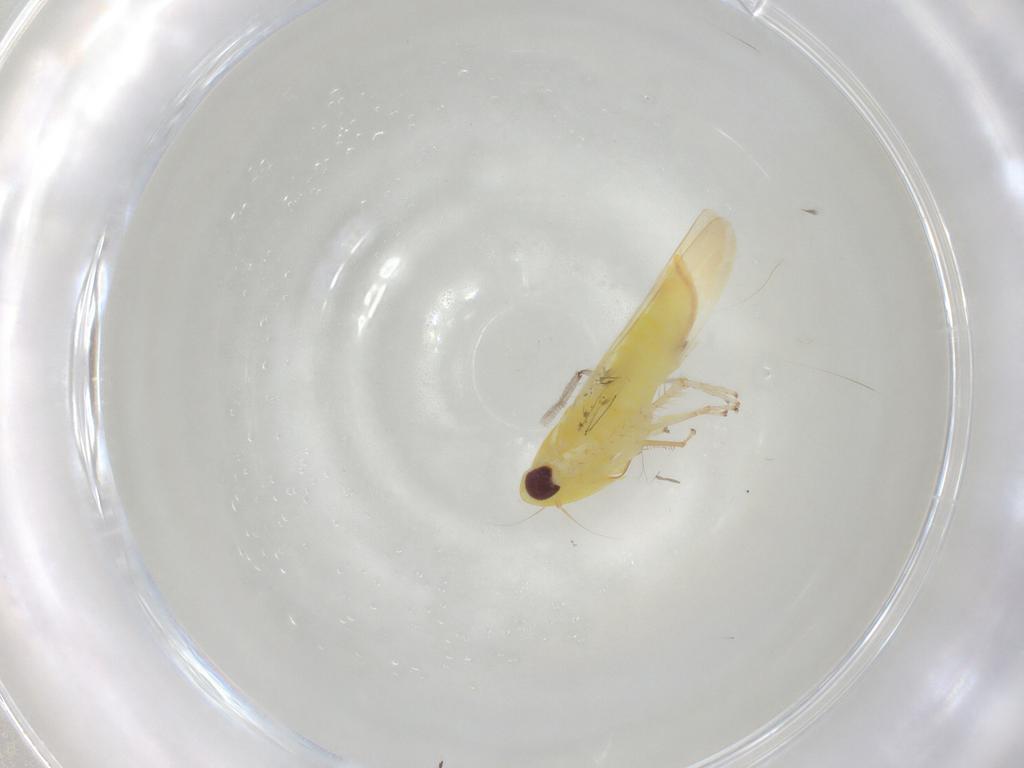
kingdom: Animalia
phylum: Arthropoda
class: Insecta
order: Hemiptera
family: Cicadellidae
